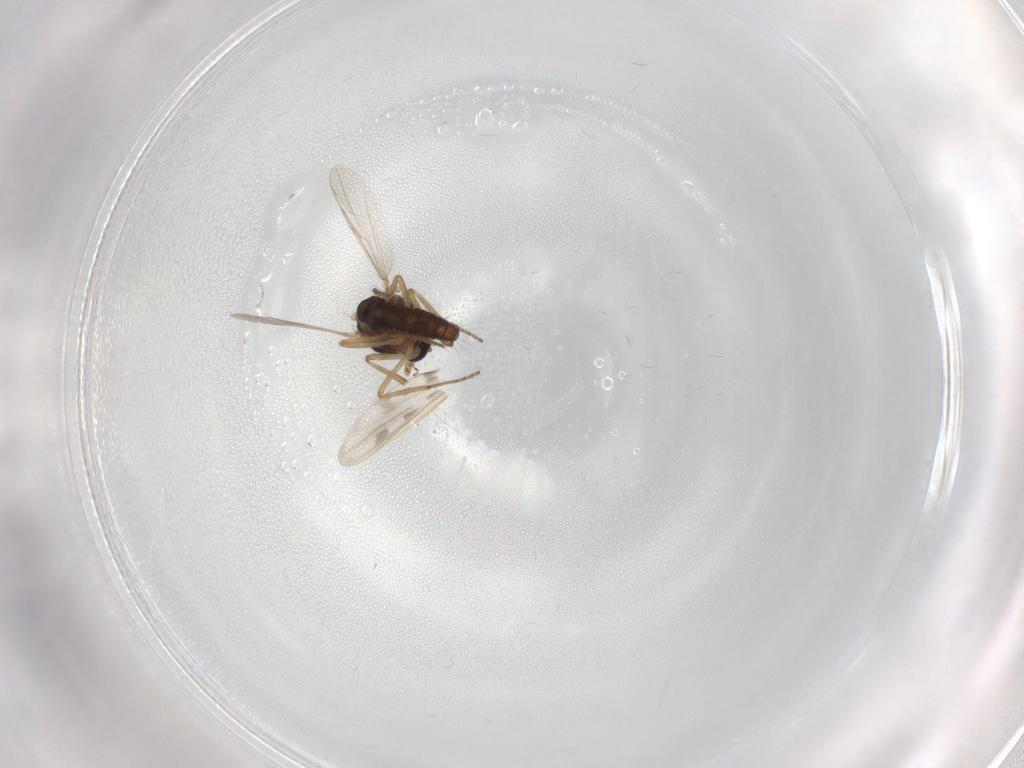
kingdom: Animalia
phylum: Arthropoda
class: Insecta
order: Diptera
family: Ceratopogonidae
